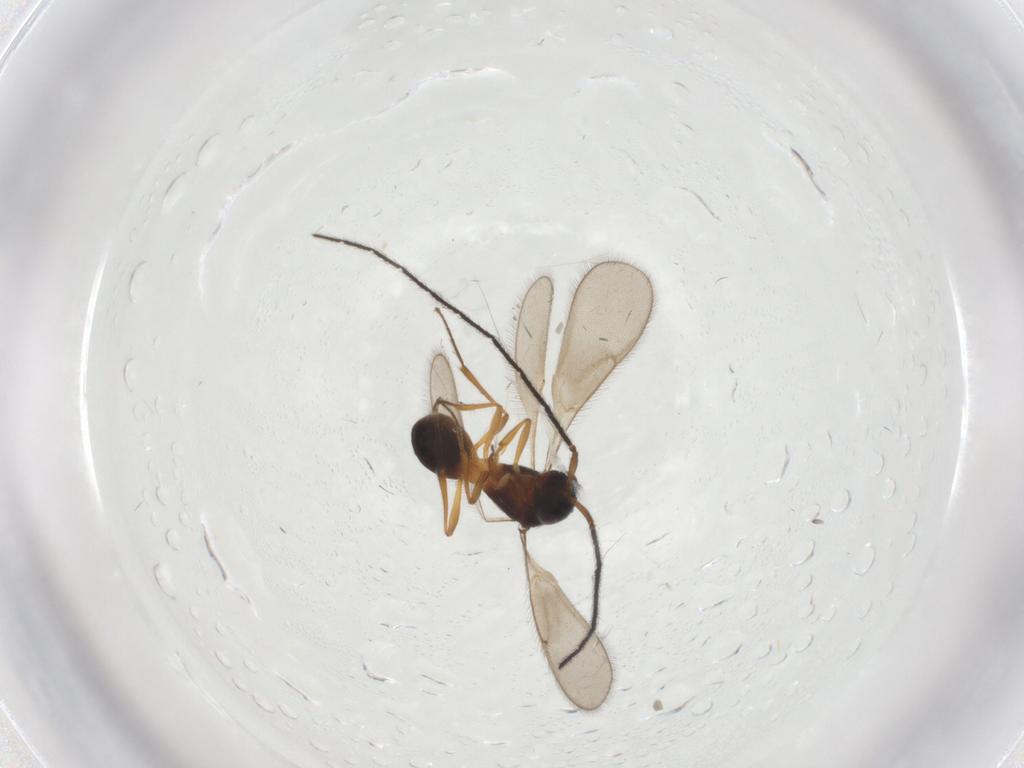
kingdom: Animalia
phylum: Arthropoda
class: Insecta
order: Hymenoptera
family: Scelionidae
